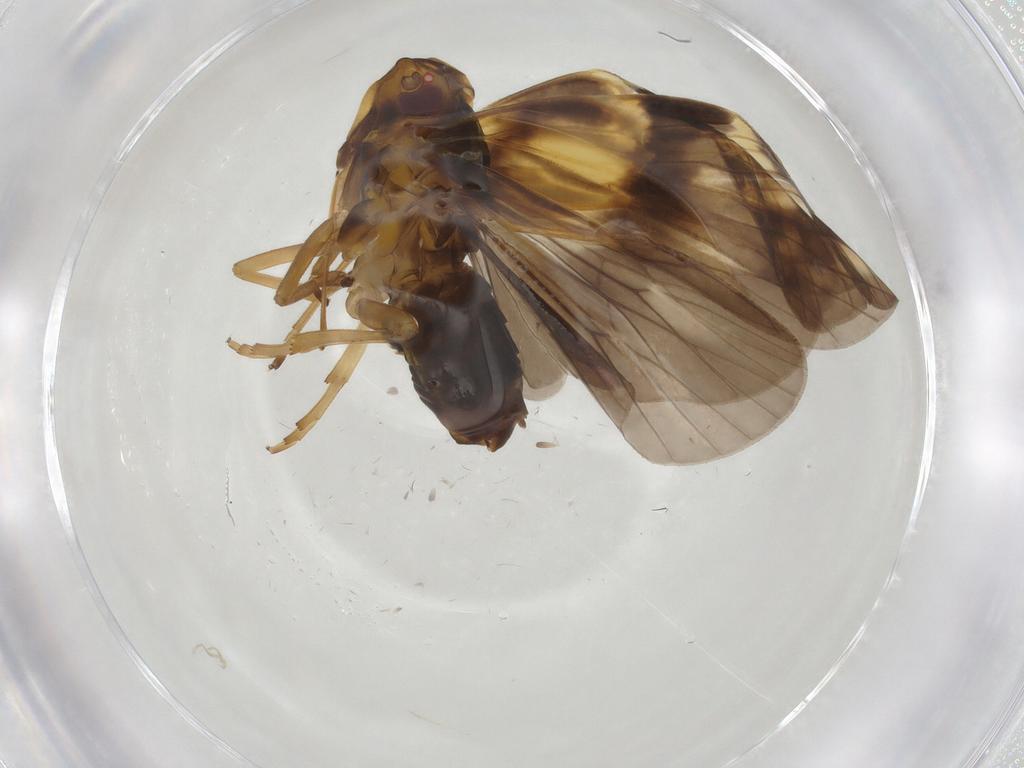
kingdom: Animalia
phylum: Arthropoda
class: Insecta
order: Hemiptera
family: Cixiidae
